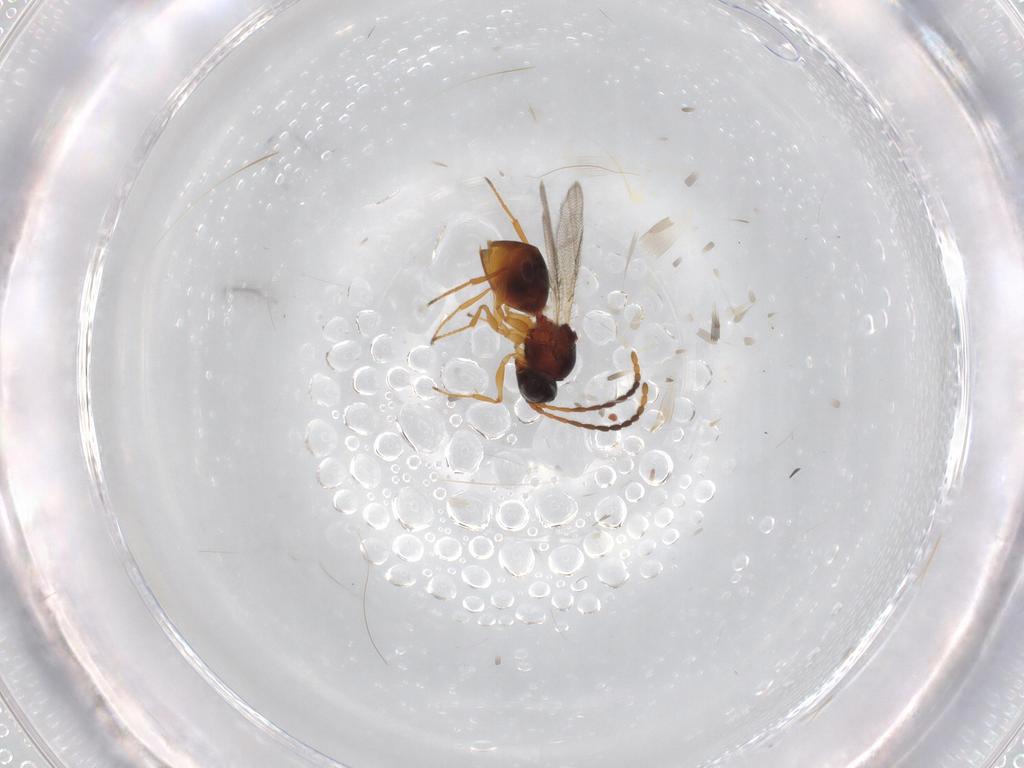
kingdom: Animalia
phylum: Arthropoda
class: Insecta
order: Hymenoptera
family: Figitidae
